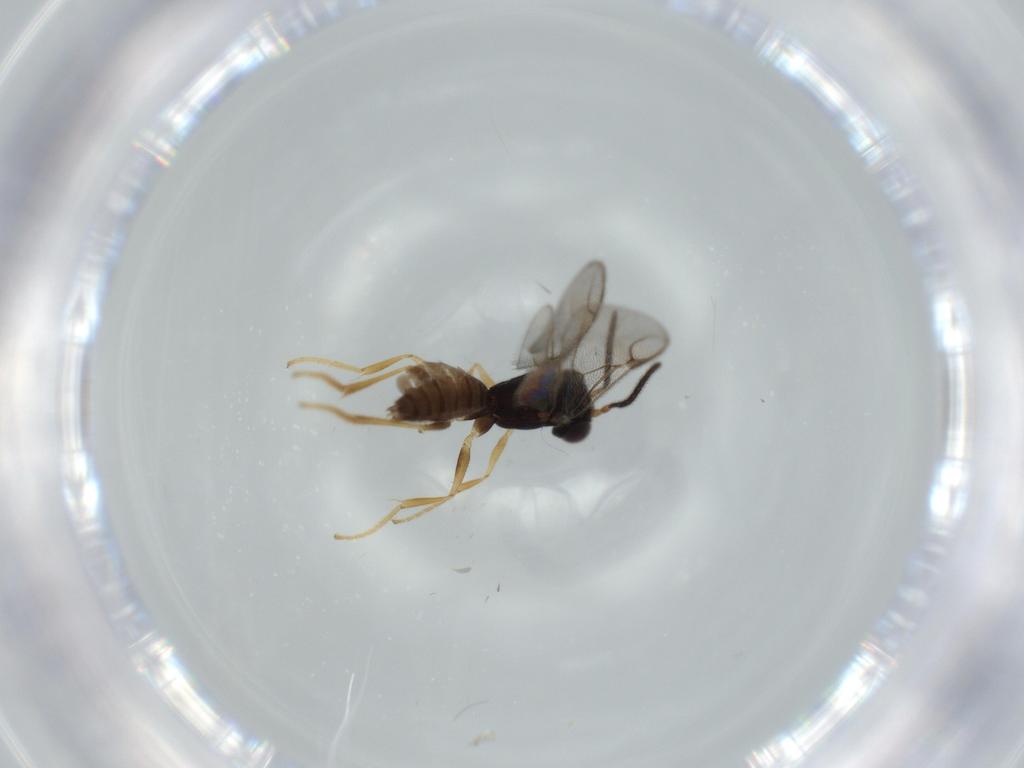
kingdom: Animalia
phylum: Arthropoda
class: Insecta
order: Hymenoptera
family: Dryinidae
